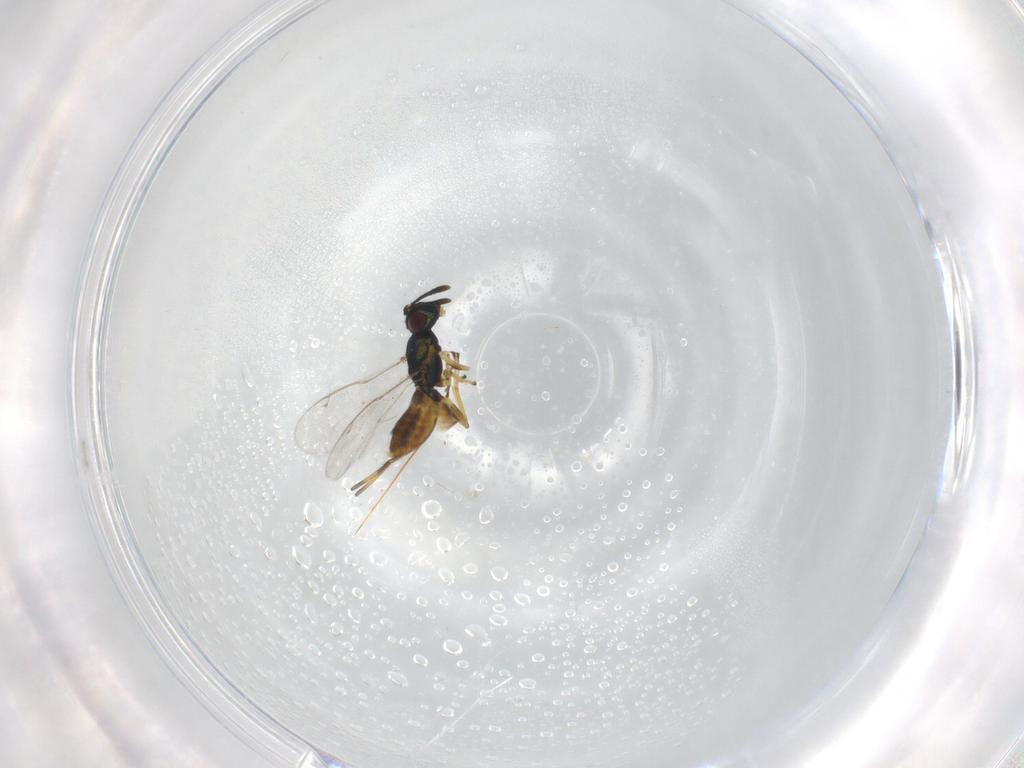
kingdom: Animalia
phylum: Arthropoda
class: Insecta
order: Hymenoptera
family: Eupelmidae
